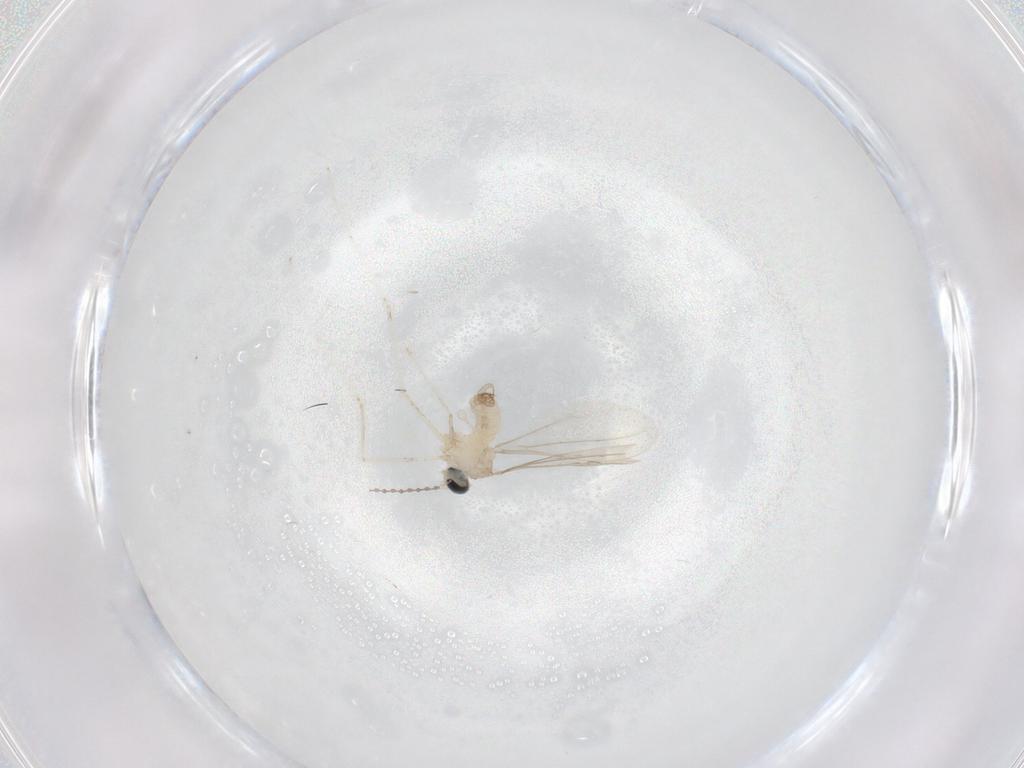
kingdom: Animalia
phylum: Arthropoda
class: Insecta
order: Diptera
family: Cecidomyiidae
